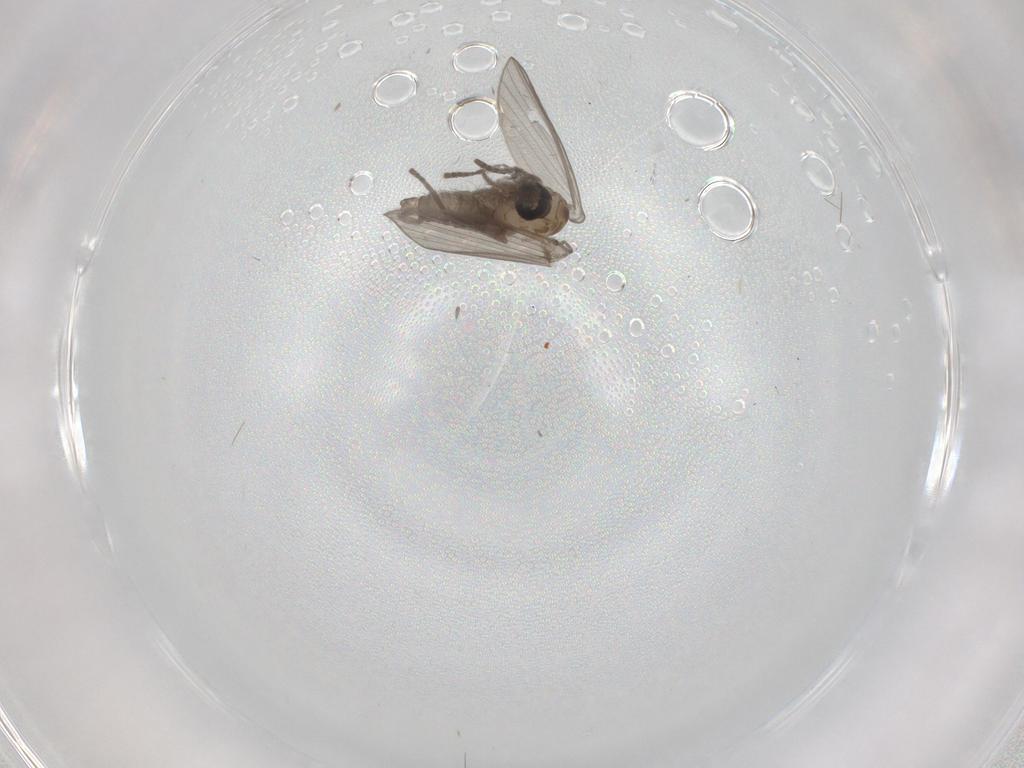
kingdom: Animalia
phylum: Arthropoda
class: Insecta
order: Diptera
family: Psychodidae
